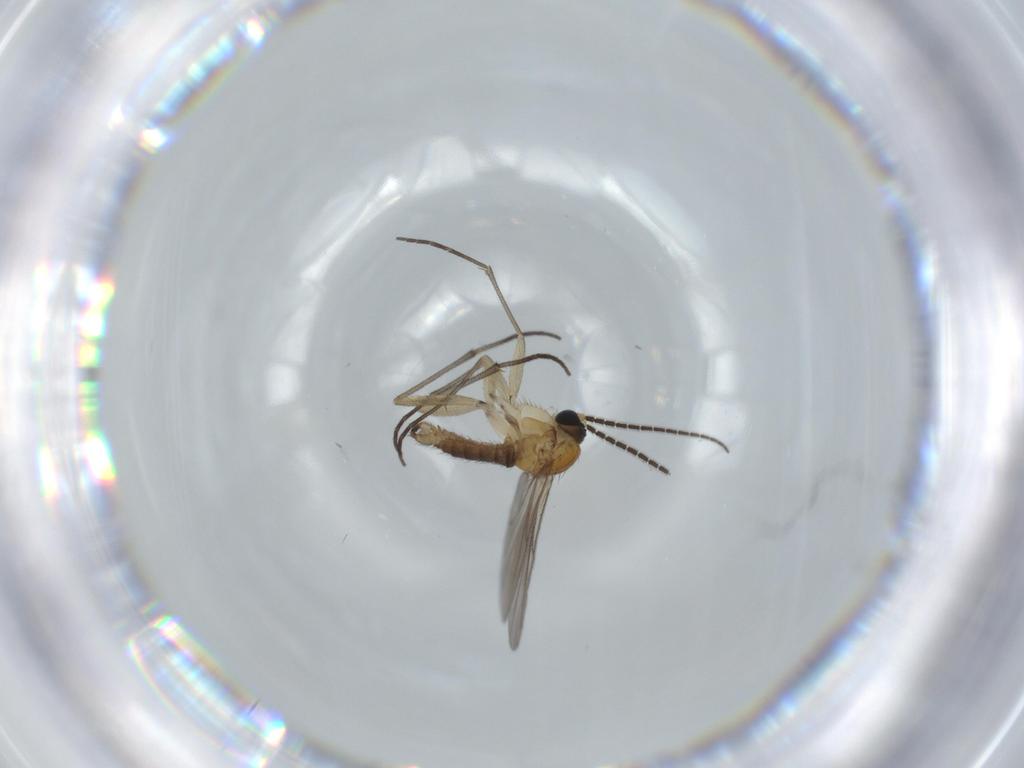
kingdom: Animalia
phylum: Arthropoda
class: Insecta
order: Diptera
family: Sciaridae
